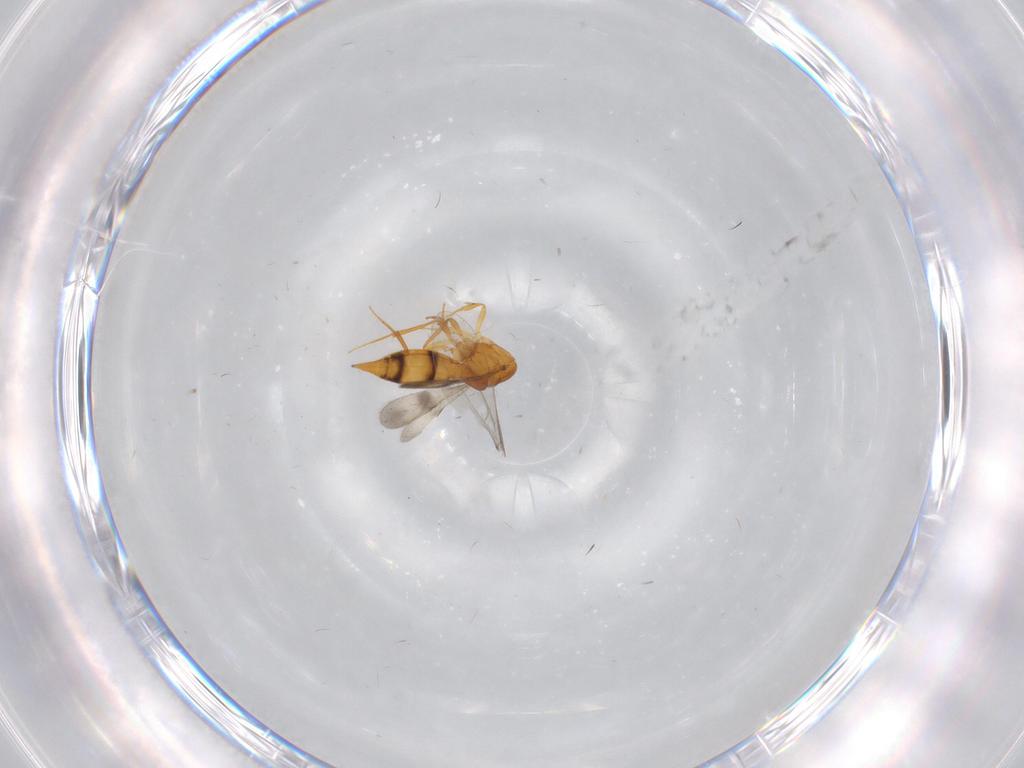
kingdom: Animalia
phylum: Arthropoda
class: Insecta
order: Hymenoptera
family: Scelionidae
